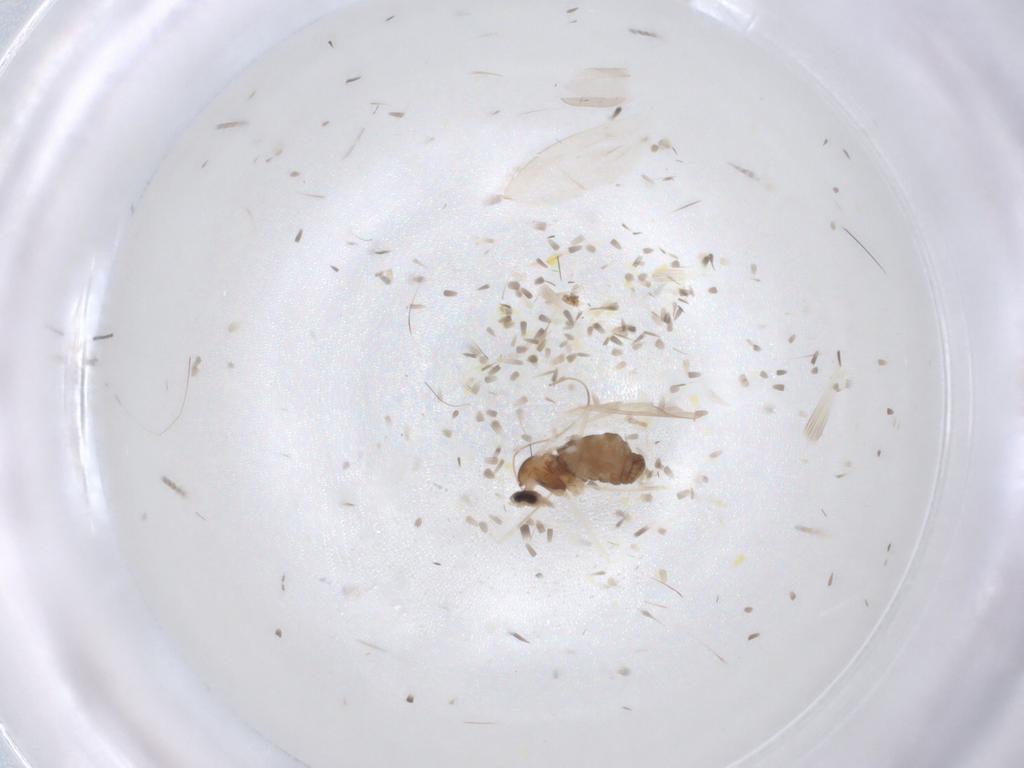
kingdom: Animalia
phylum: Arthropoda
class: Insecta
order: Diptera
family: Cecidomyiidae
